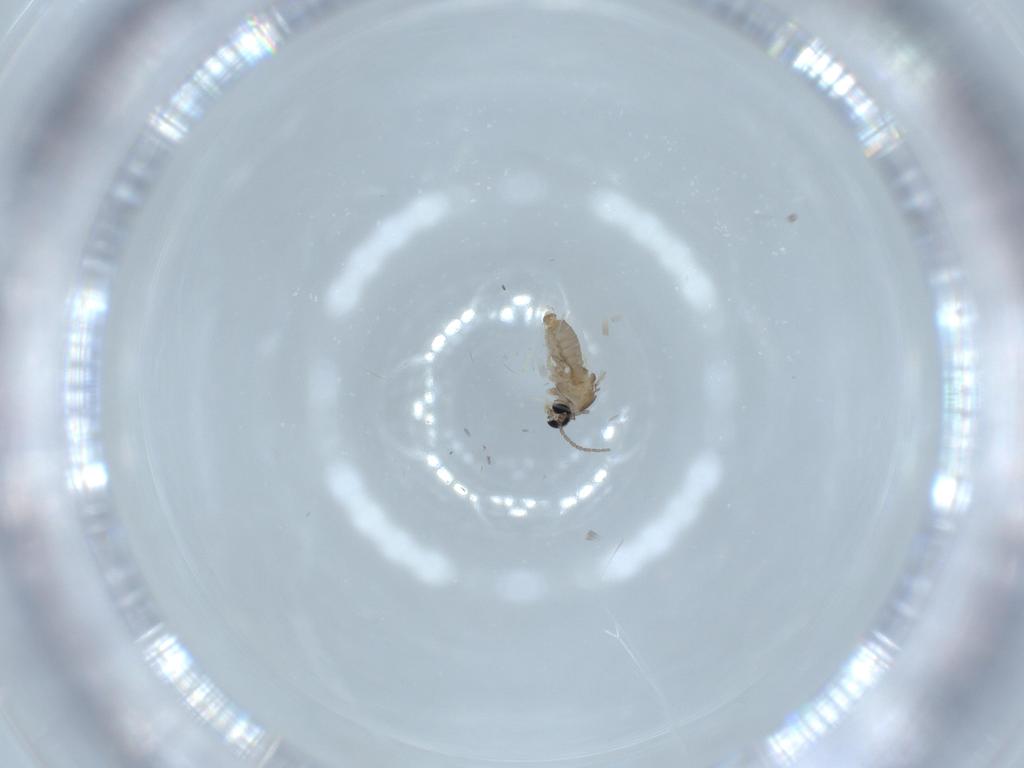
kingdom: Animalia
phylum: Arthropoda
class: Insecta
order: Diptera
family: Cecidomyiidae
